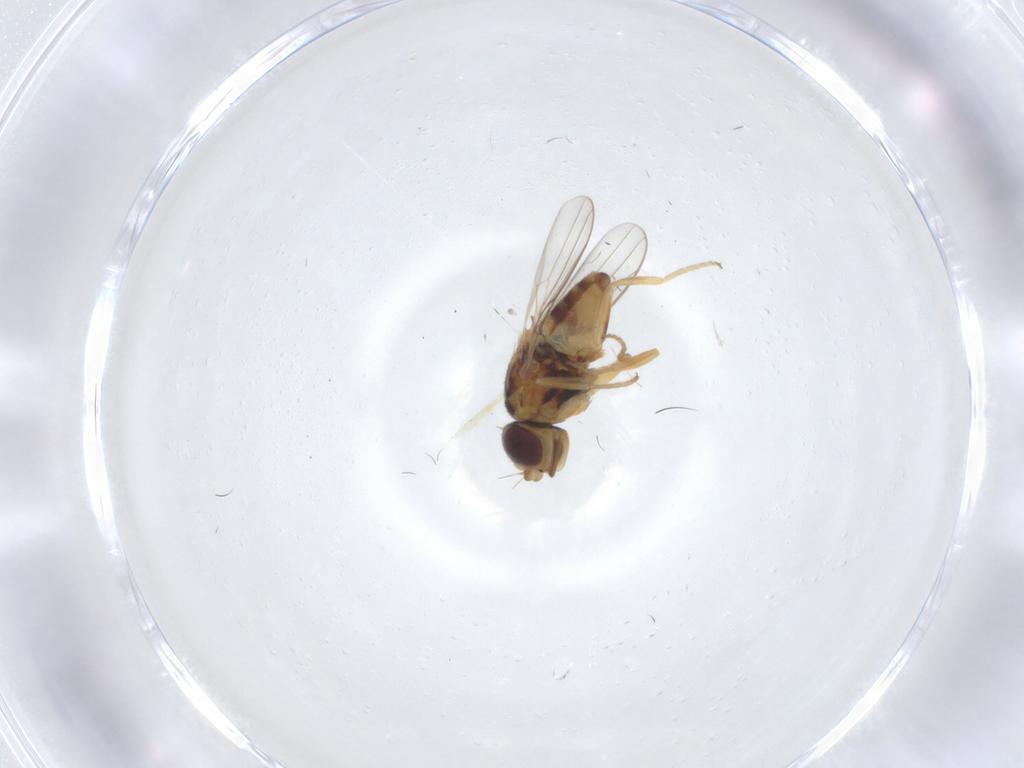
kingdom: Animalia
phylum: Arthropoda
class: Insecta
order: Diptera
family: Chloropidae
